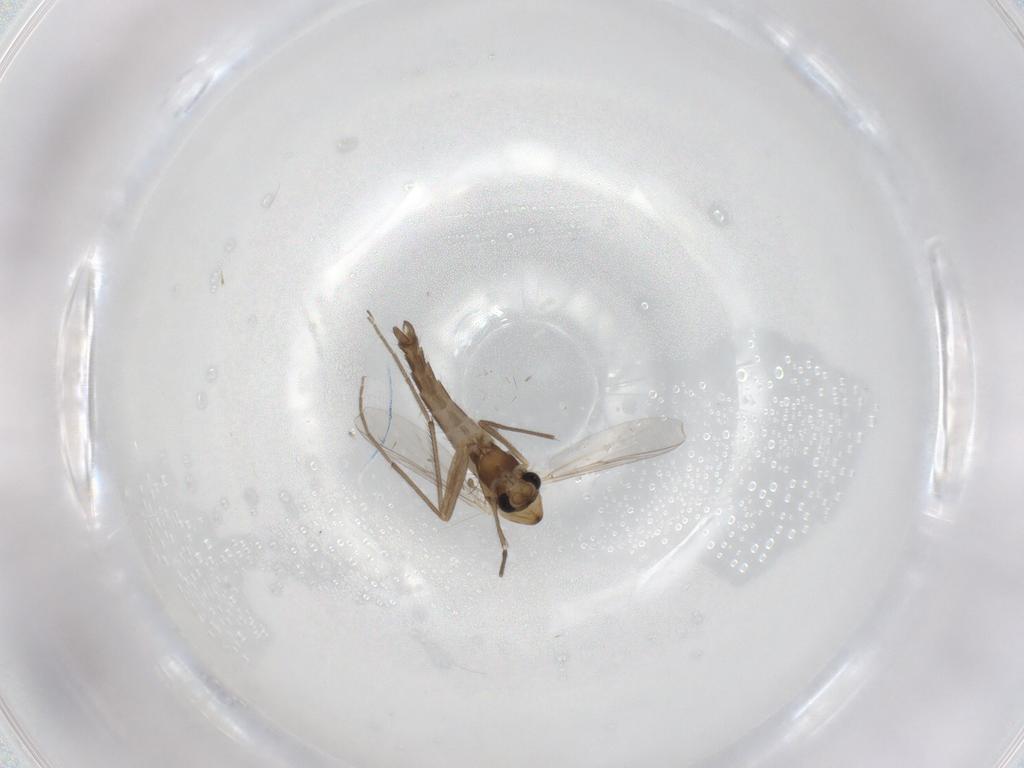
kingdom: Animalia
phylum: Arthropoda
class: Insecta
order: Diptera
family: Chironomidae
